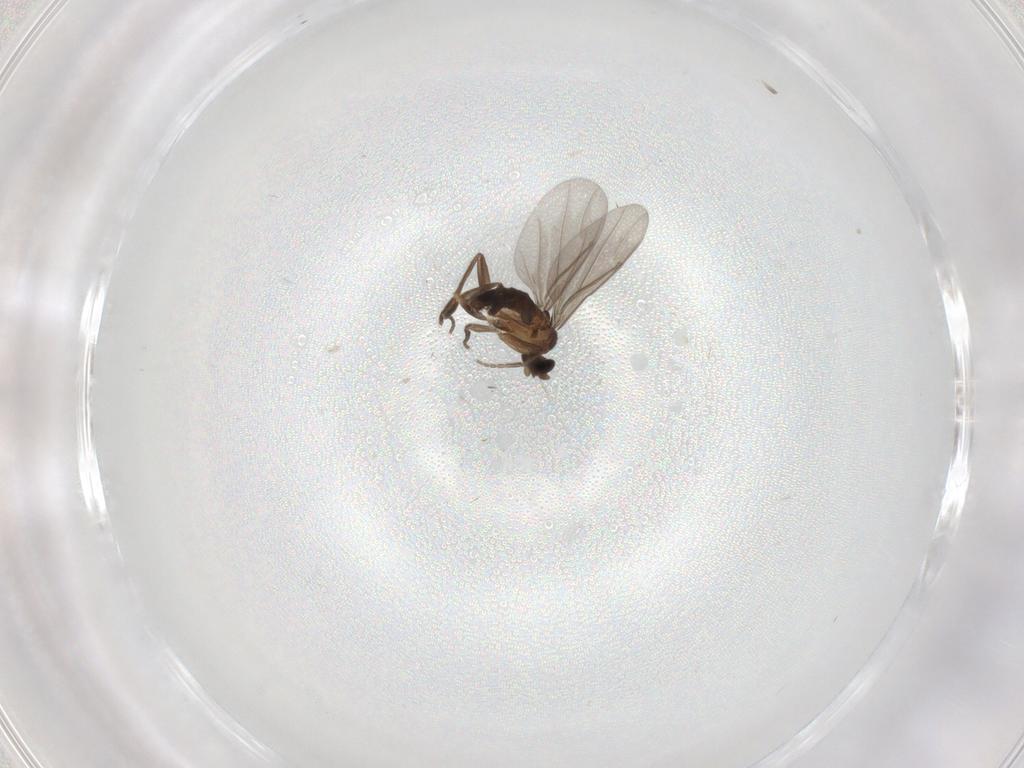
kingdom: Animalia
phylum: Arthropoda
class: Insecta
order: Diptera
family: Phoridae
